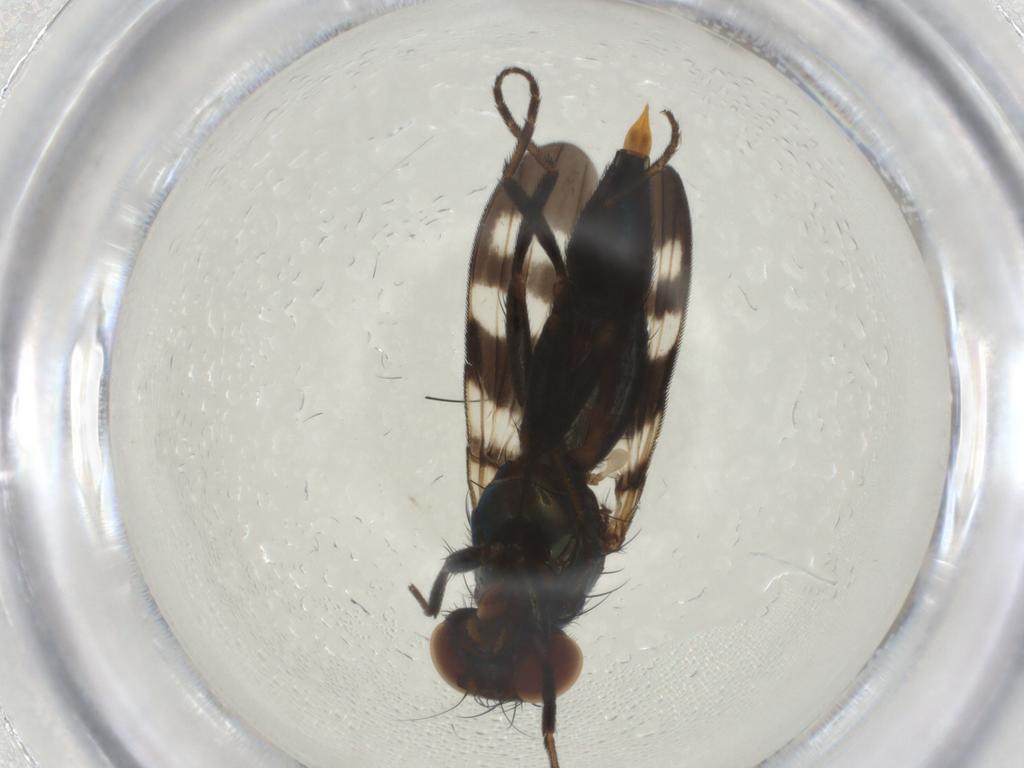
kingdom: Animalia
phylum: Arthropoda
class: Insecta
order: Diptera
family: Ulidiidae
